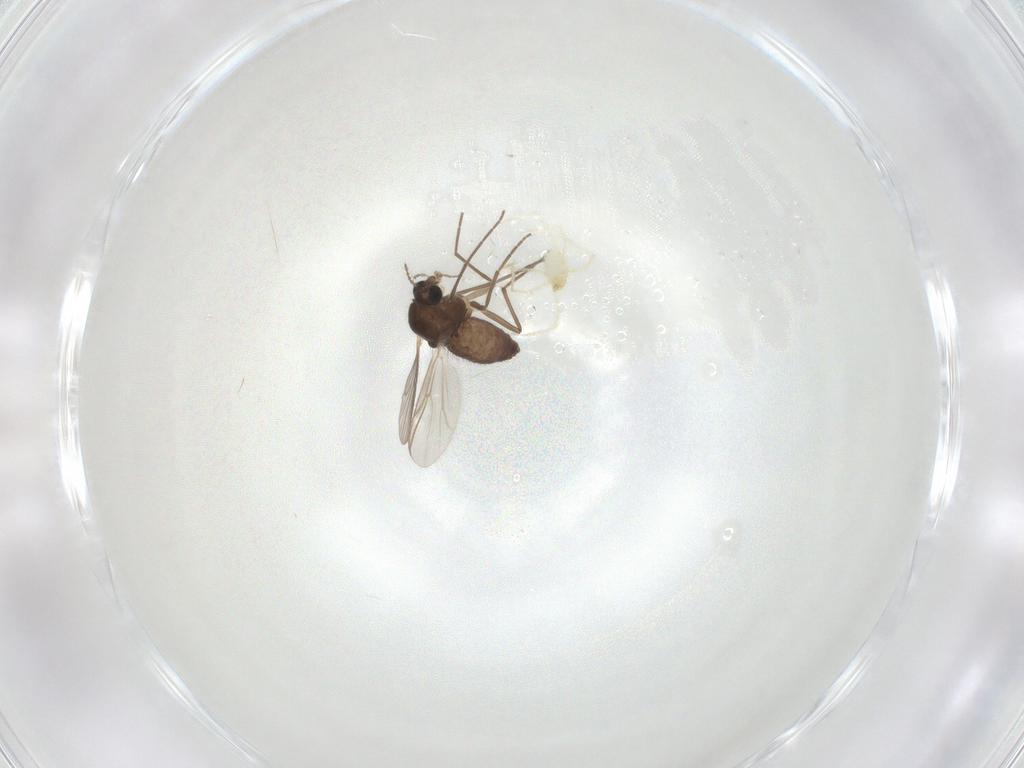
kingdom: Animalia
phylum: Arthropoda
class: Insecta
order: Diptera
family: Chironomidae
